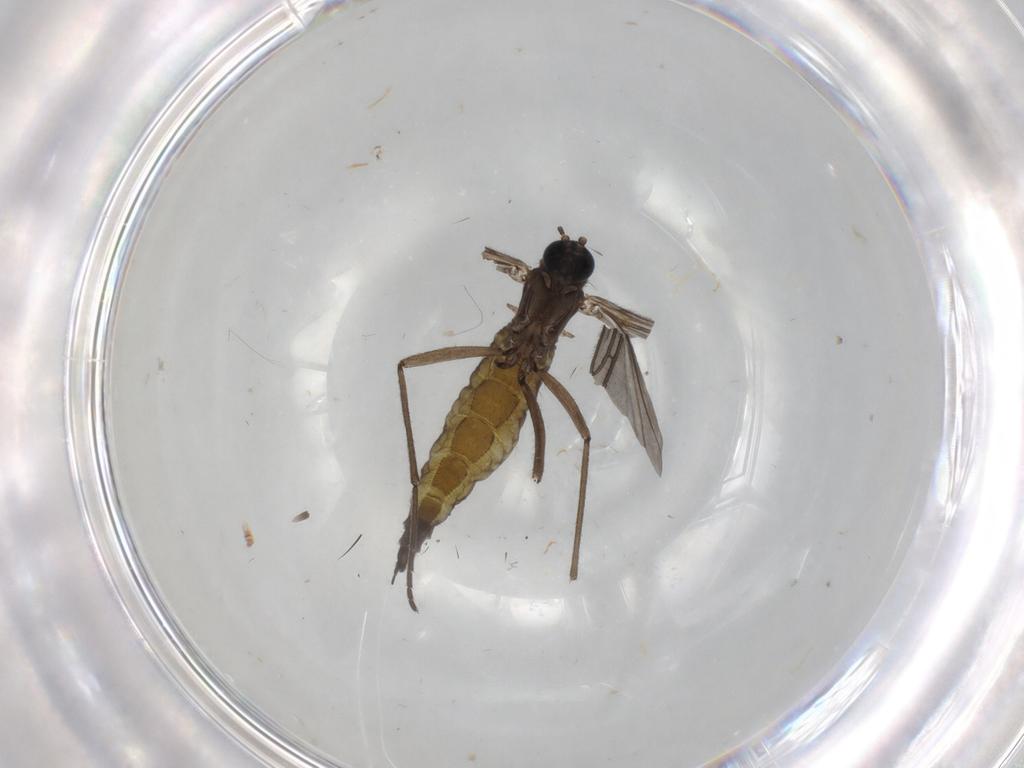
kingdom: Animalia
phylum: Arthropoda
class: Insecta
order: Diptera
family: Sciaridae
